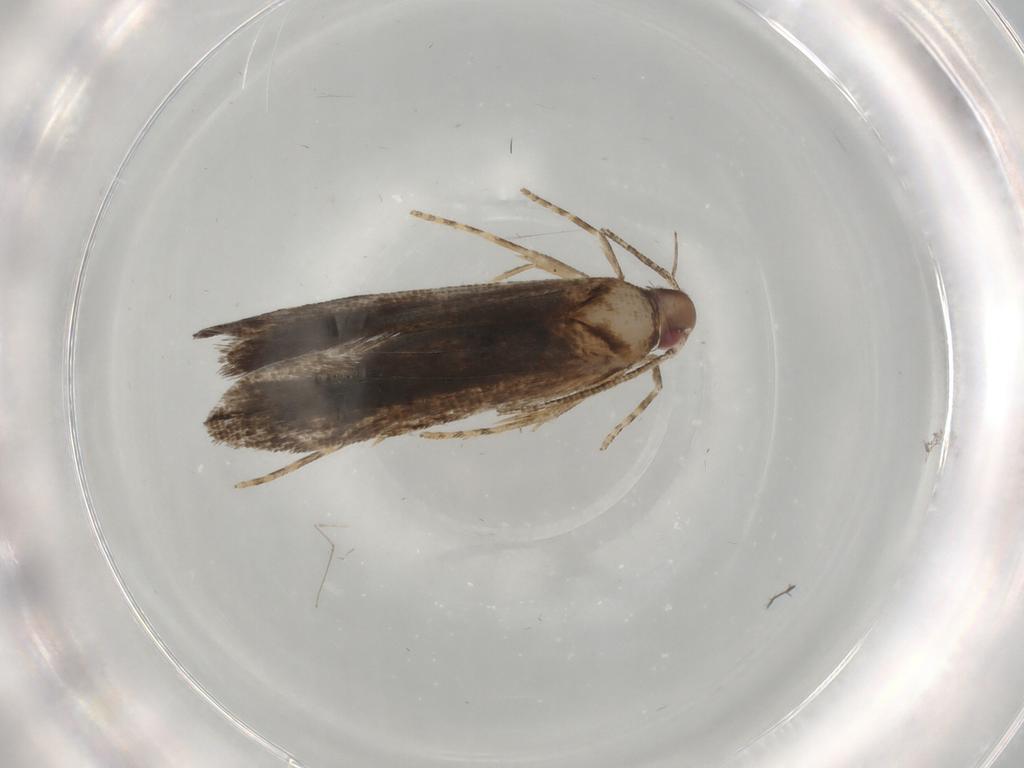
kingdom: Animalia
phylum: Arthropoda
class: Insecta
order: Lepidoptera
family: Gelechiidae
